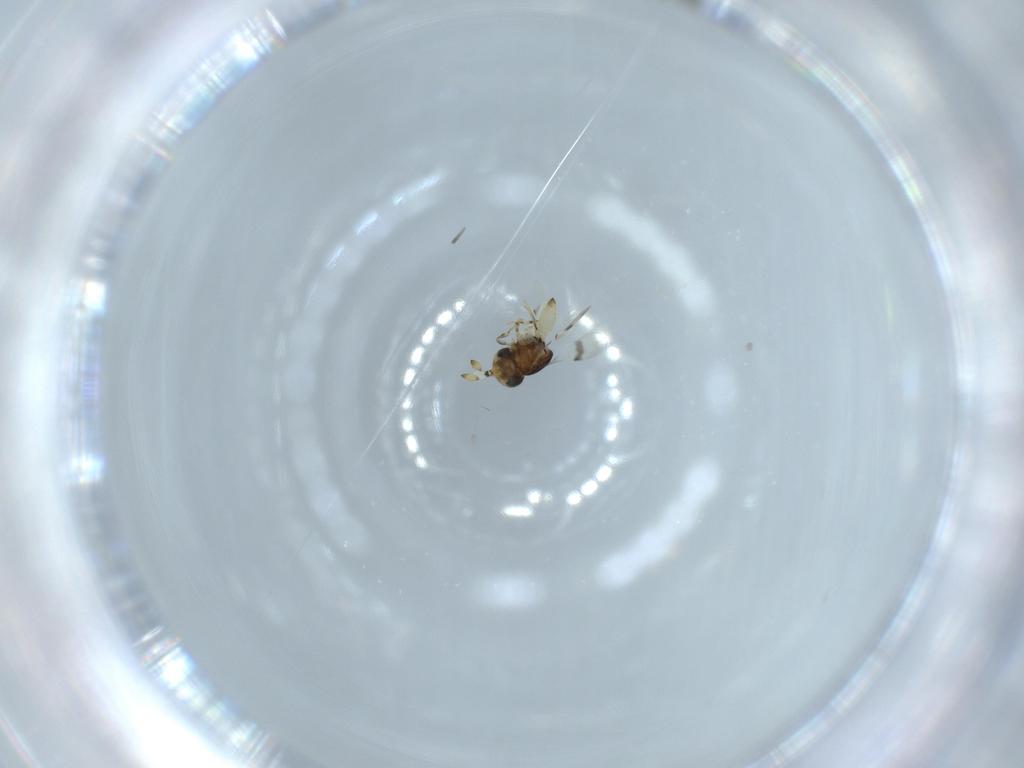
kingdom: Animalia
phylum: Arthropoda
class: Insecta
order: Hymenoptera
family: Scelionidae
